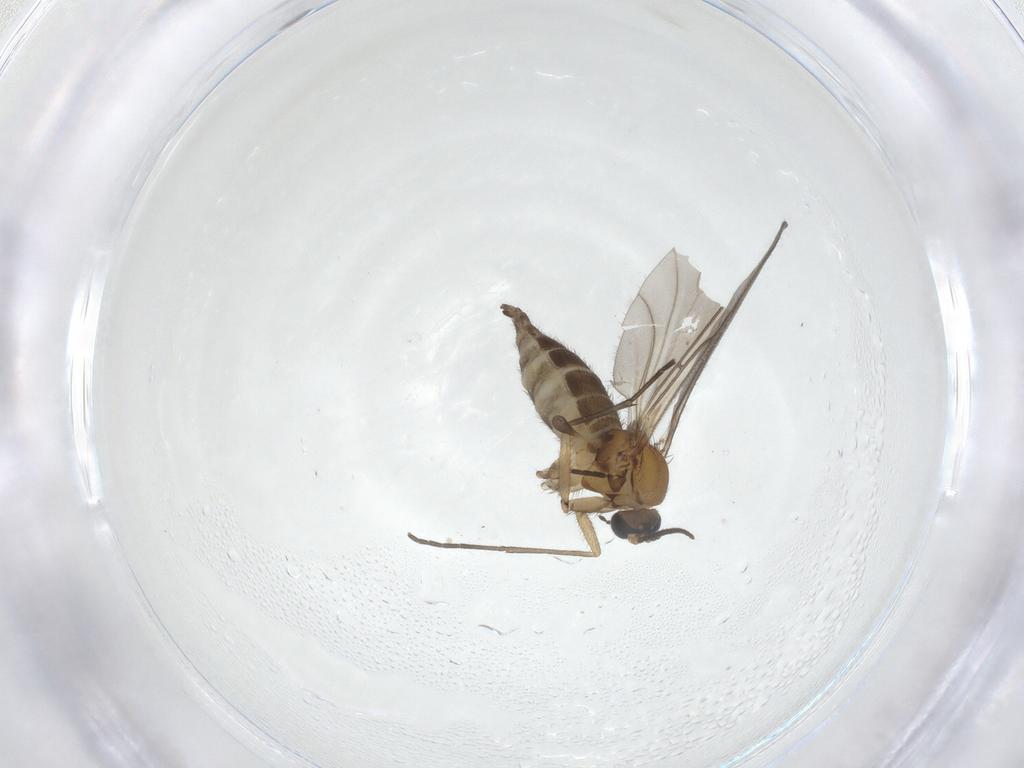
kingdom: Animalia
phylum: Arthropoda
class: Insecta
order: Diptera
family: Sciaridae
